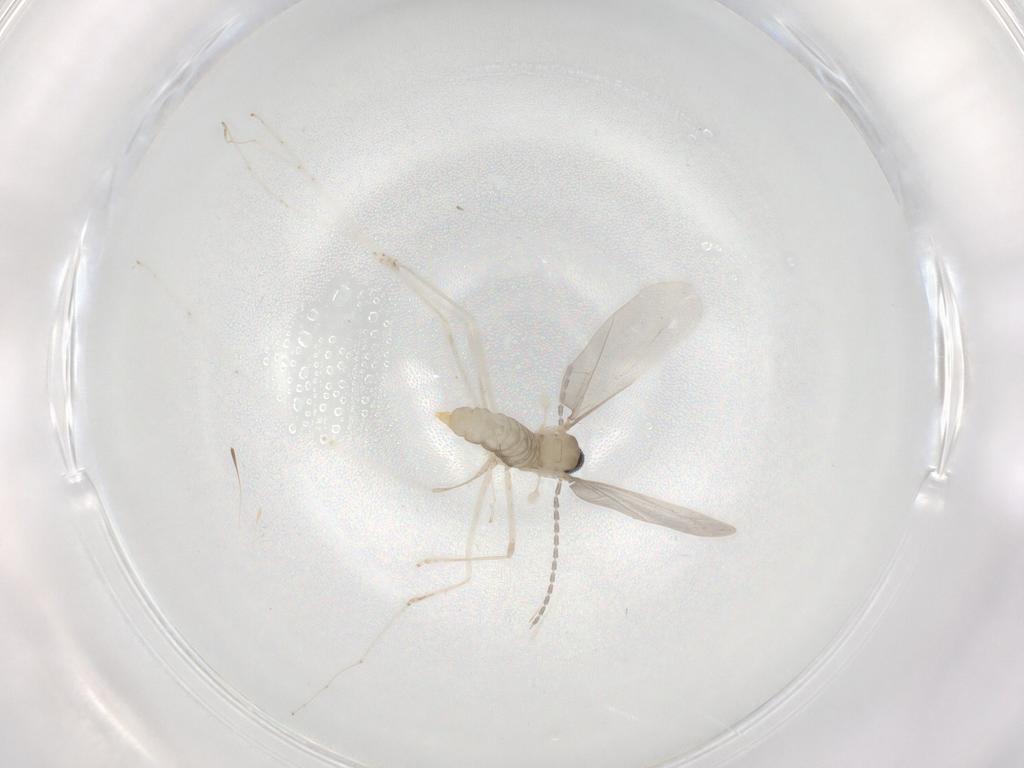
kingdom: Animalia
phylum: Arthropoda
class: Insecta
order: Diptera
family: Cecidomyiidae
